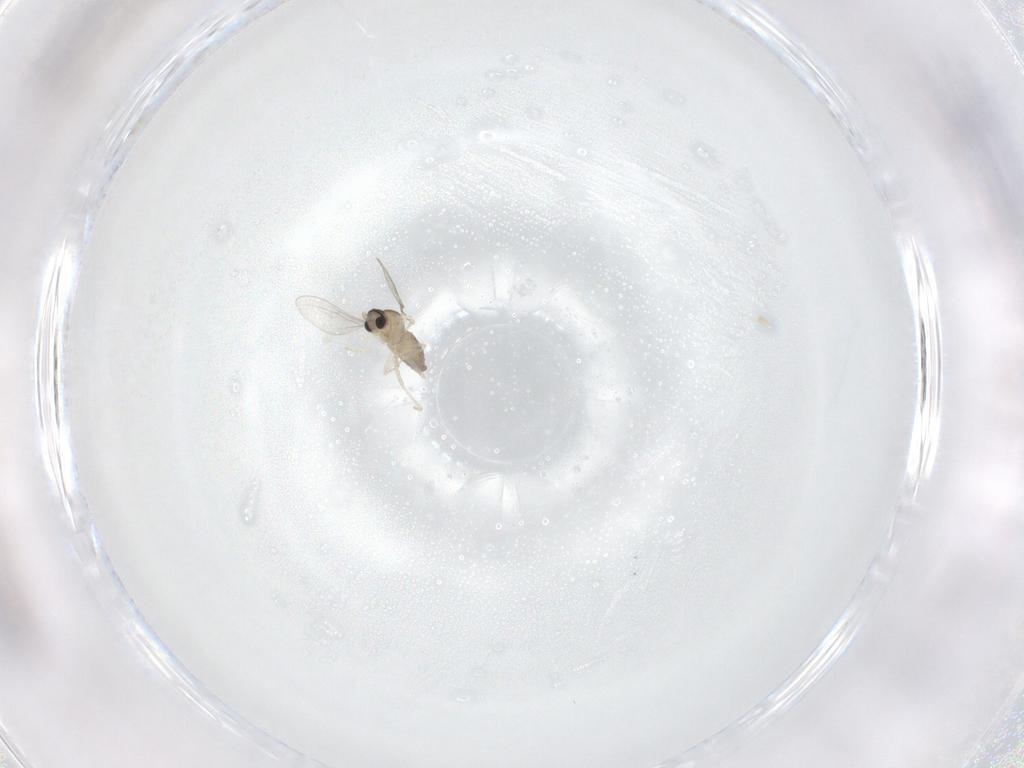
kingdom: Animalia
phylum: Arthropoda
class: Insecta
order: Diptera
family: Cecidomyiidae
